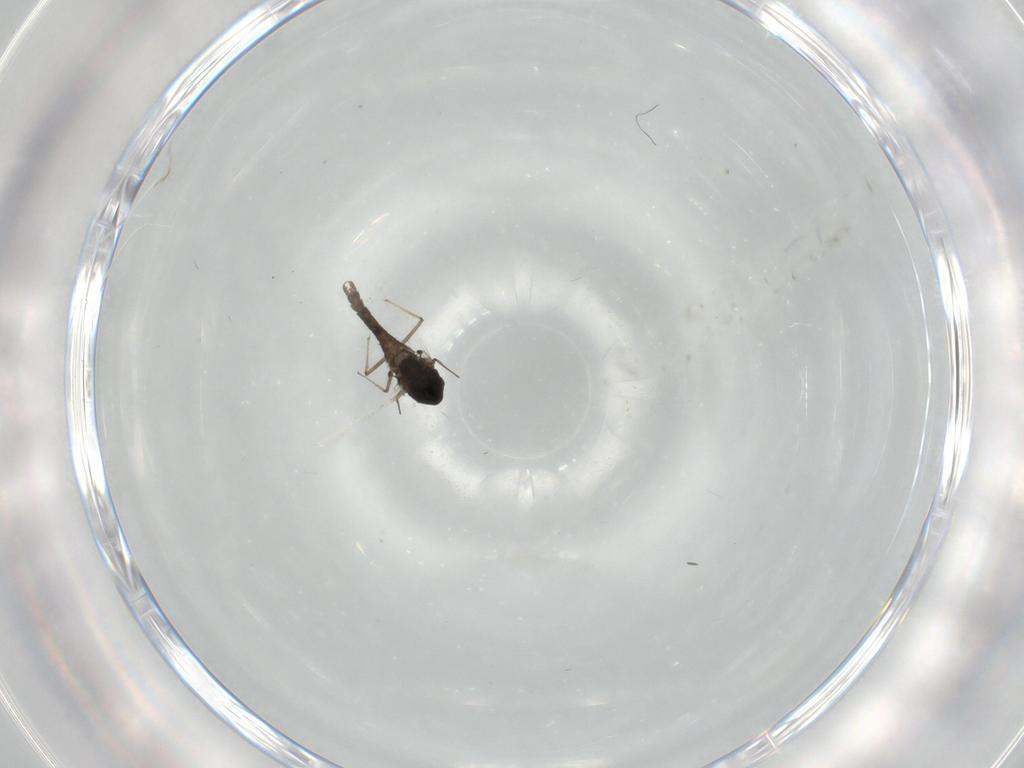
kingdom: Animalia
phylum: Arthropoda
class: Insecta
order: Diptera
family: Chironomidae
